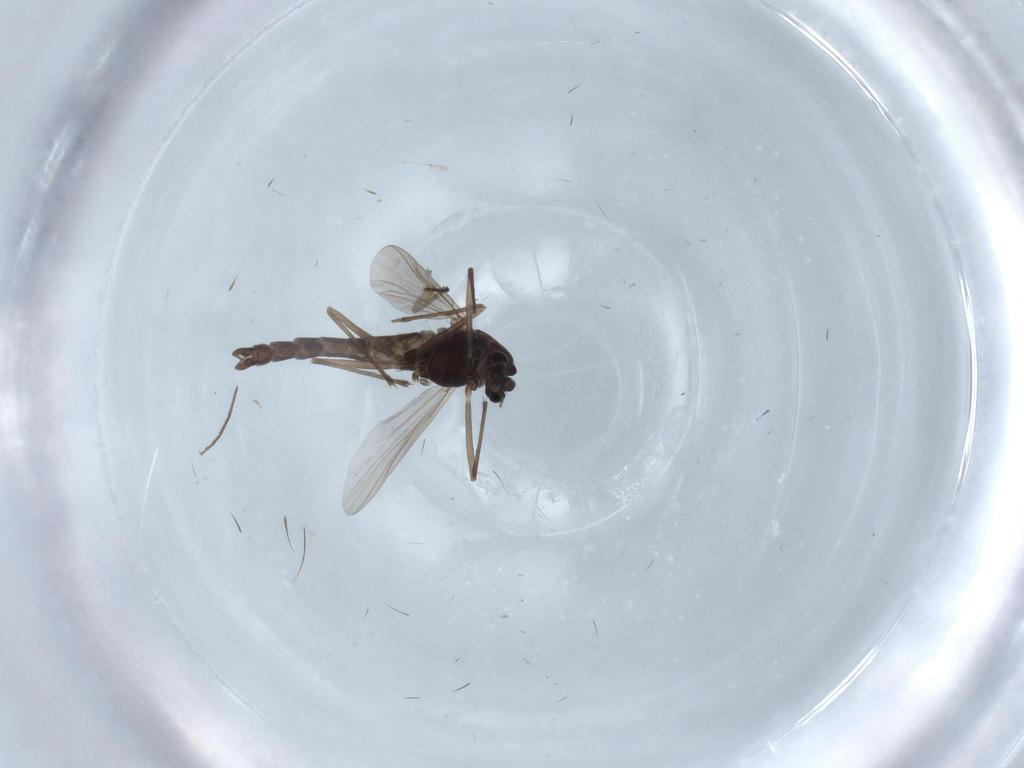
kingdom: Animalia
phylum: Arthropoda
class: Insecta
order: Diptera
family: Chironomidae
